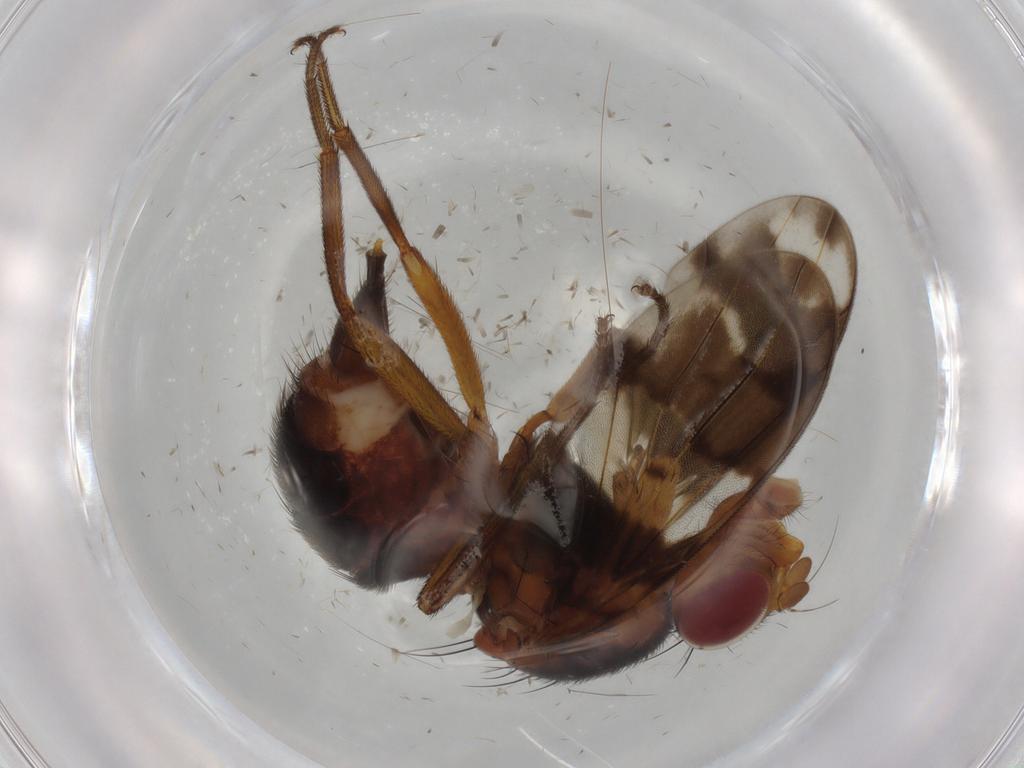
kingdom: Animalia
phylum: Arthropoda
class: Insecta
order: Diptera
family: Richardiidae
